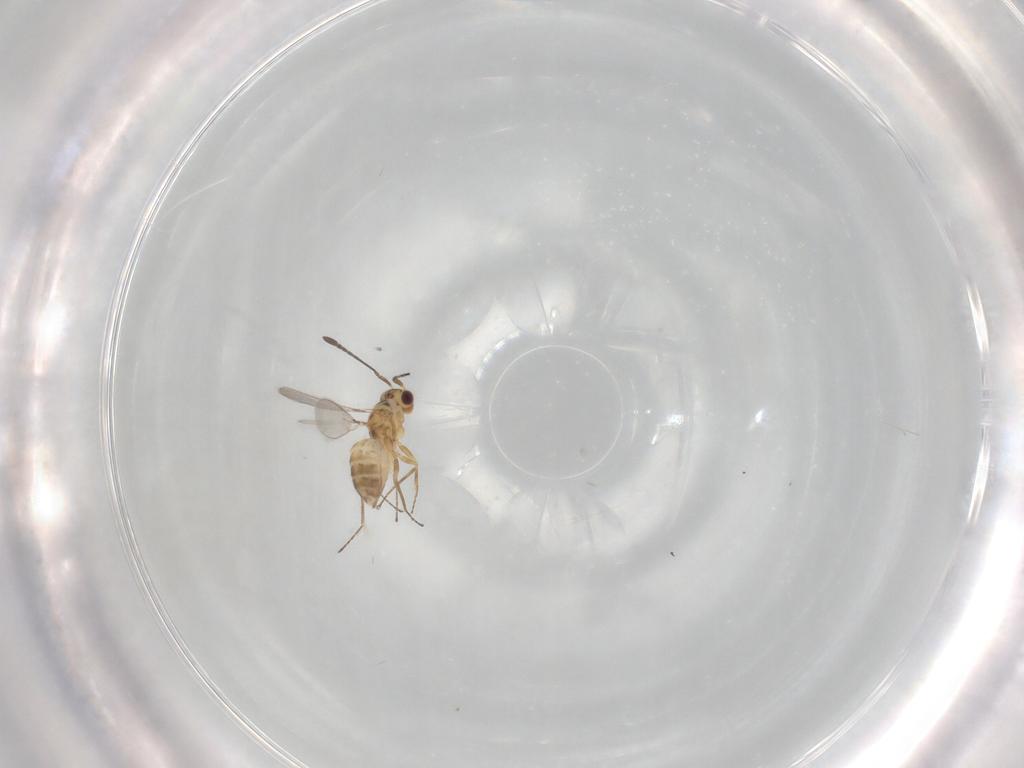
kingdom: Animalia
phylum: Arthropoda
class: Insecta
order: Hymenoptera
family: Mymaridae
